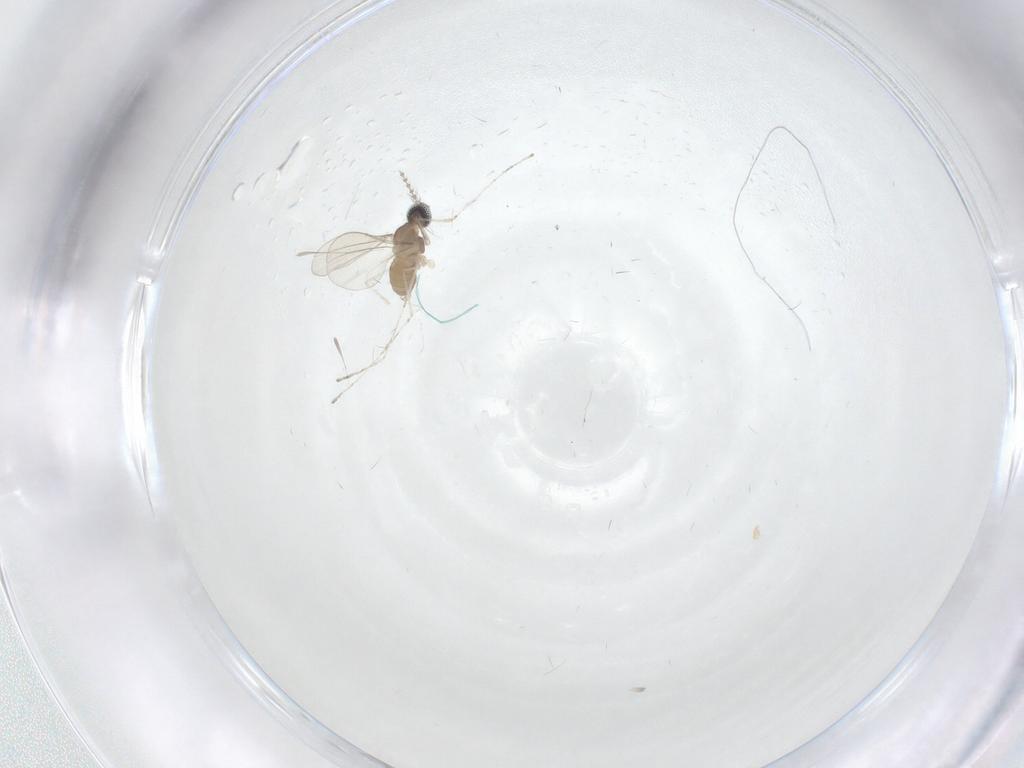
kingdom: Animalia
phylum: Arthropoda
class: Insecta
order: Diptera
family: Cecidomyiidae
